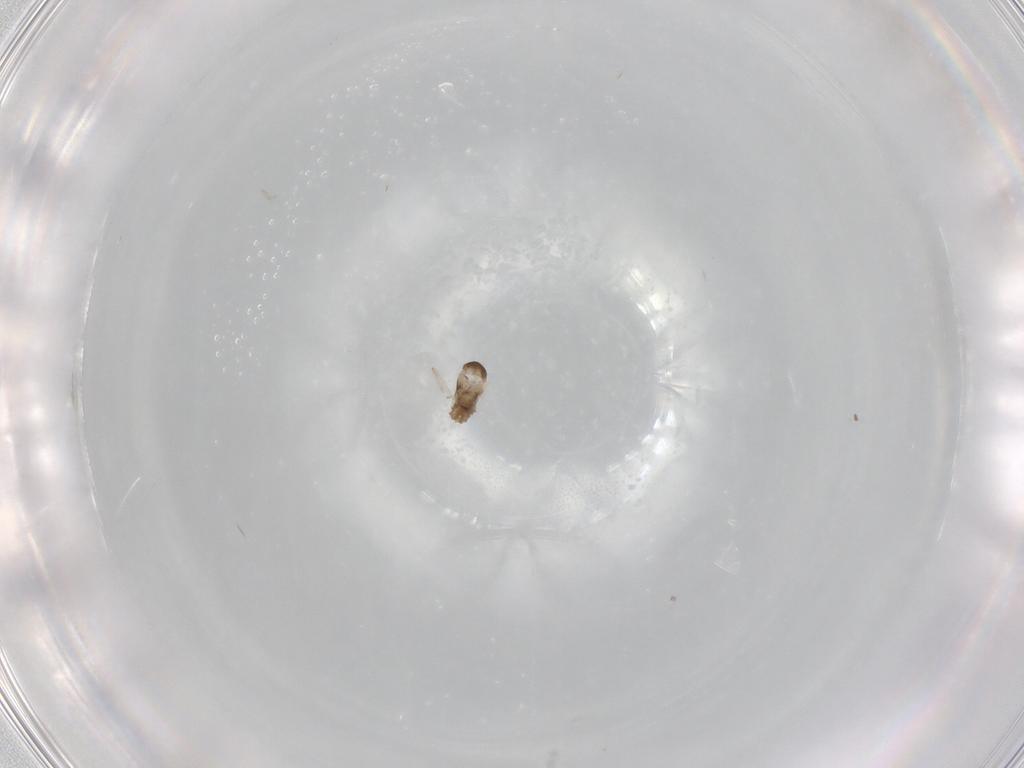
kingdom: Animalia
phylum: Arthropoda
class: Insecta
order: Diptera
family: Cecidomyiidae
